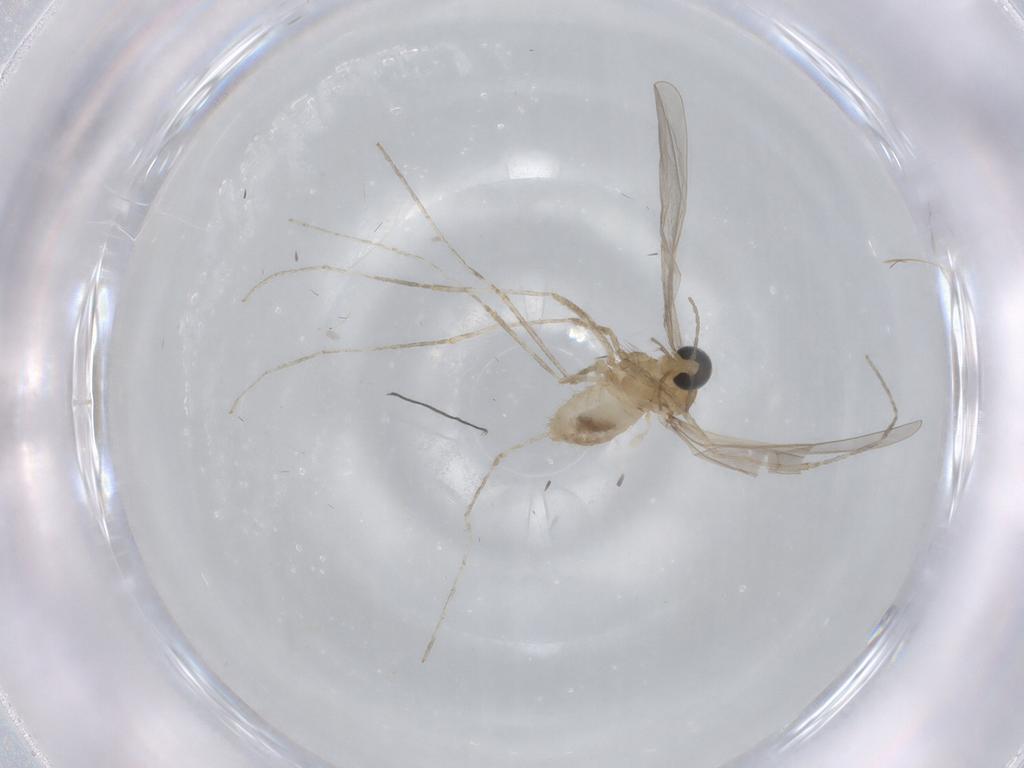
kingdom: Animalia
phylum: Arthropoda
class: Insecta
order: Diptera
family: Cecidomyiidae
